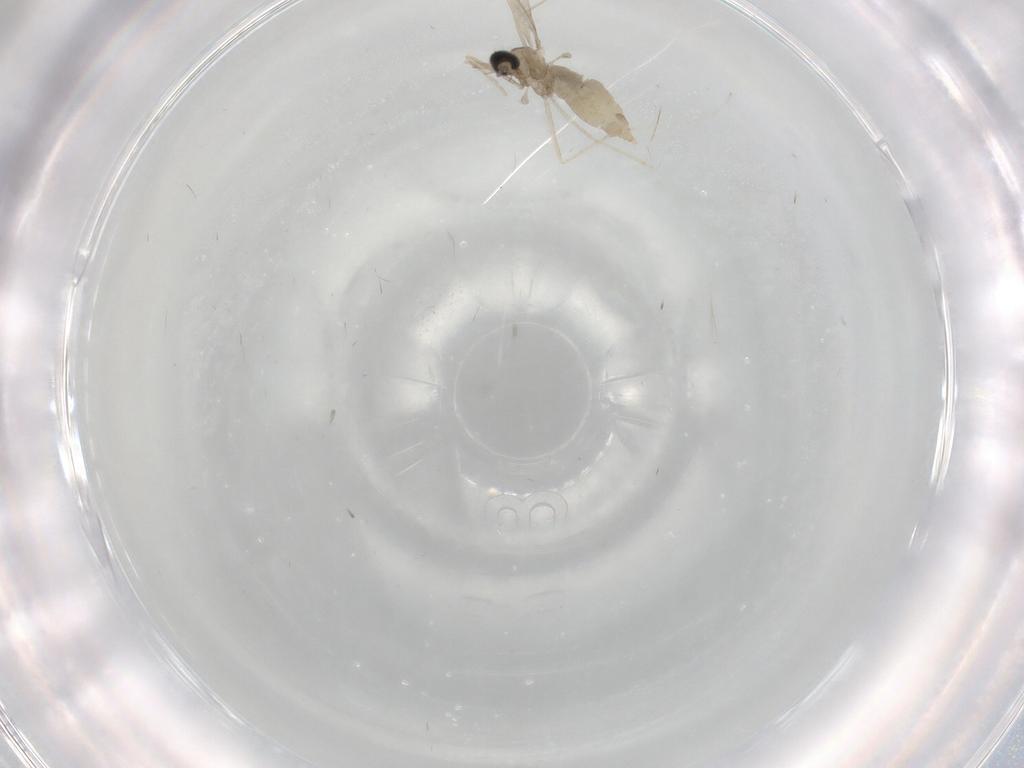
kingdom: Animalia
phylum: Arthropoda
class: Insecta
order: Diptera
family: Cecidomyiidae
